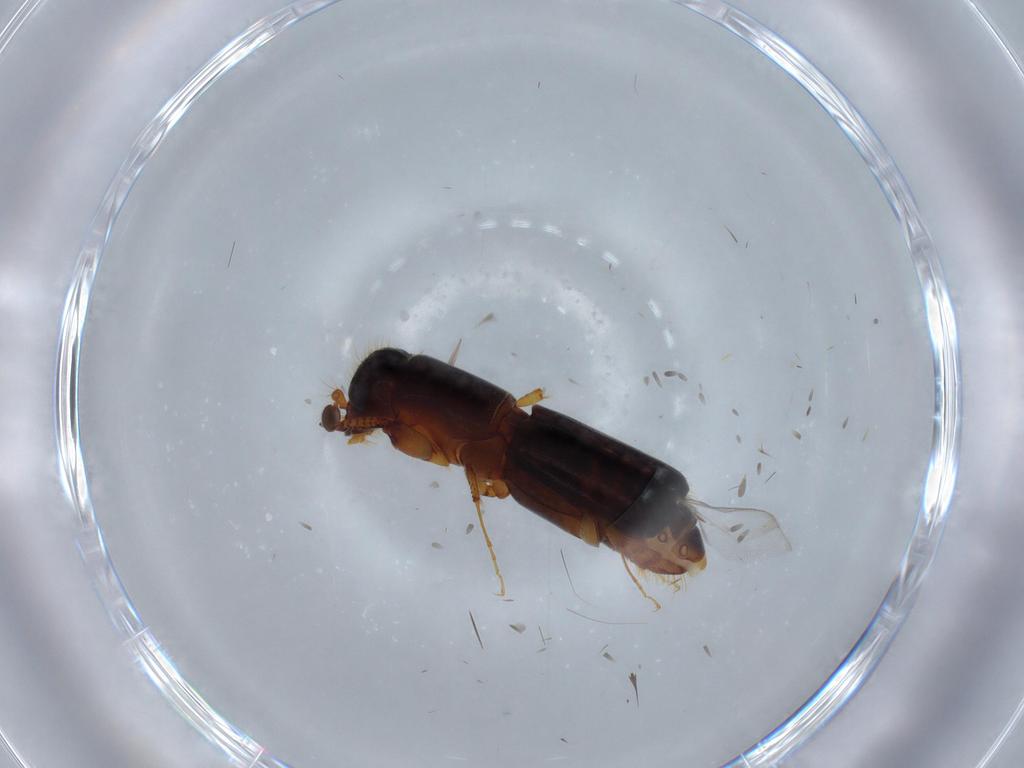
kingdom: Animalia
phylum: Arthropoda
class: Insecta
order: Coleoptera
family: Curculionidae
